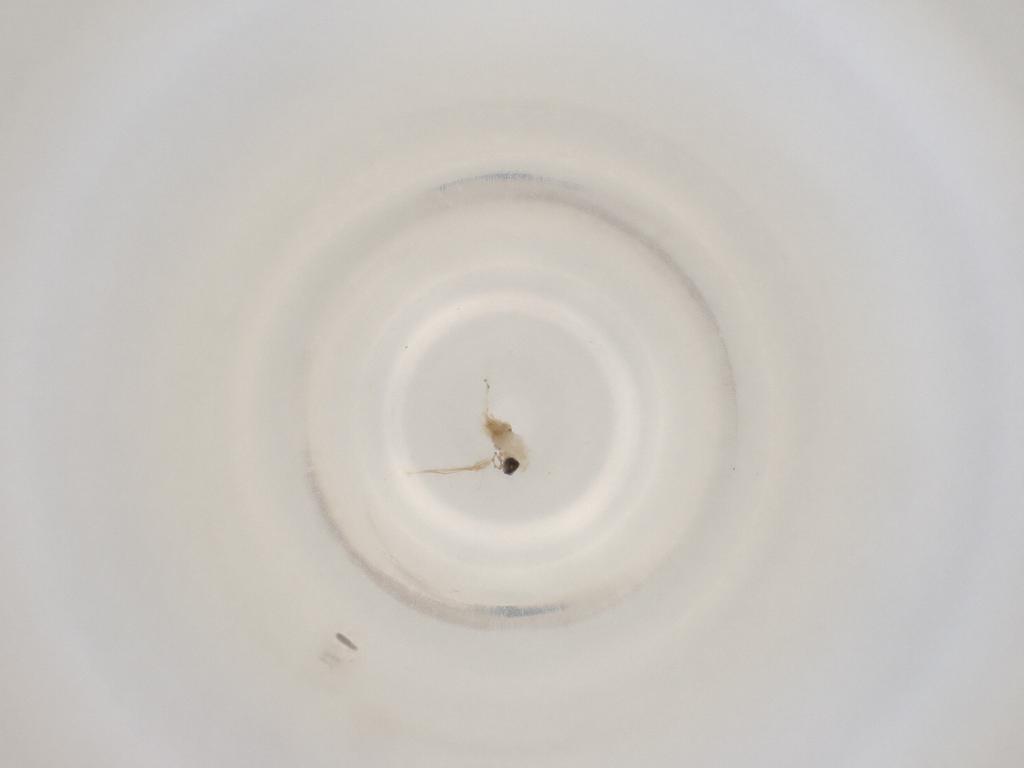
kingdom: Animalia
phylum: Arthropoda
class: Insecta
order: Diptera
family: Cecidomyiidae
